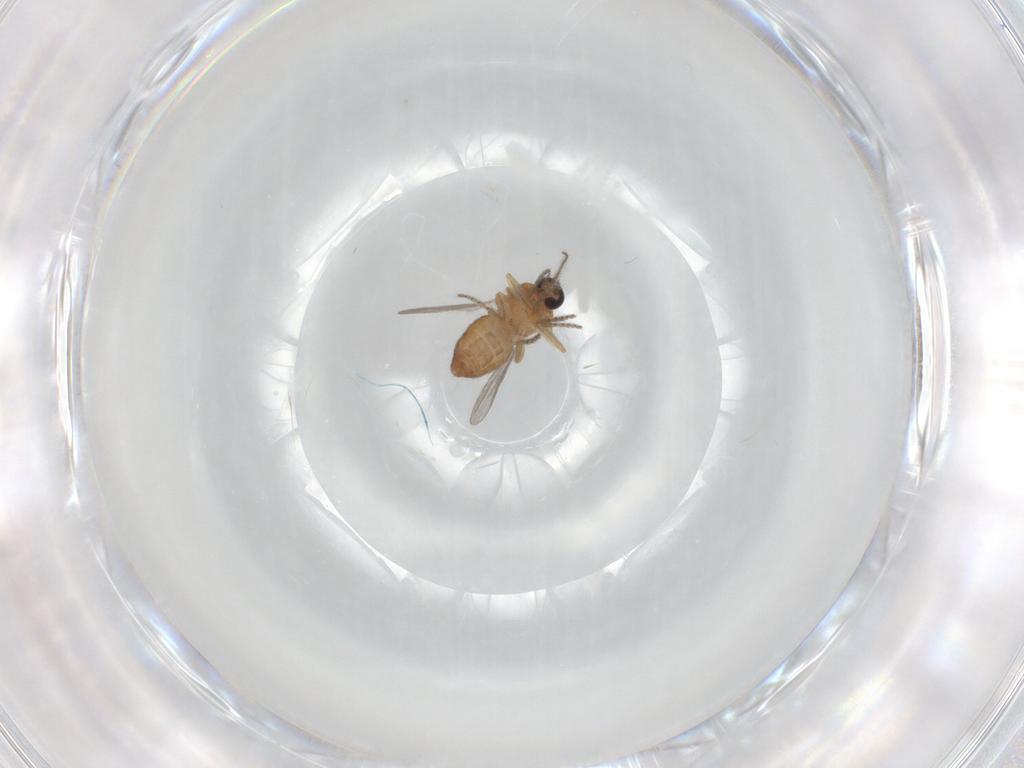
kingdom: Animalia
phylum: Arthropoda
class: Insecta
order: Diptera
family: Ceratopogonidae
